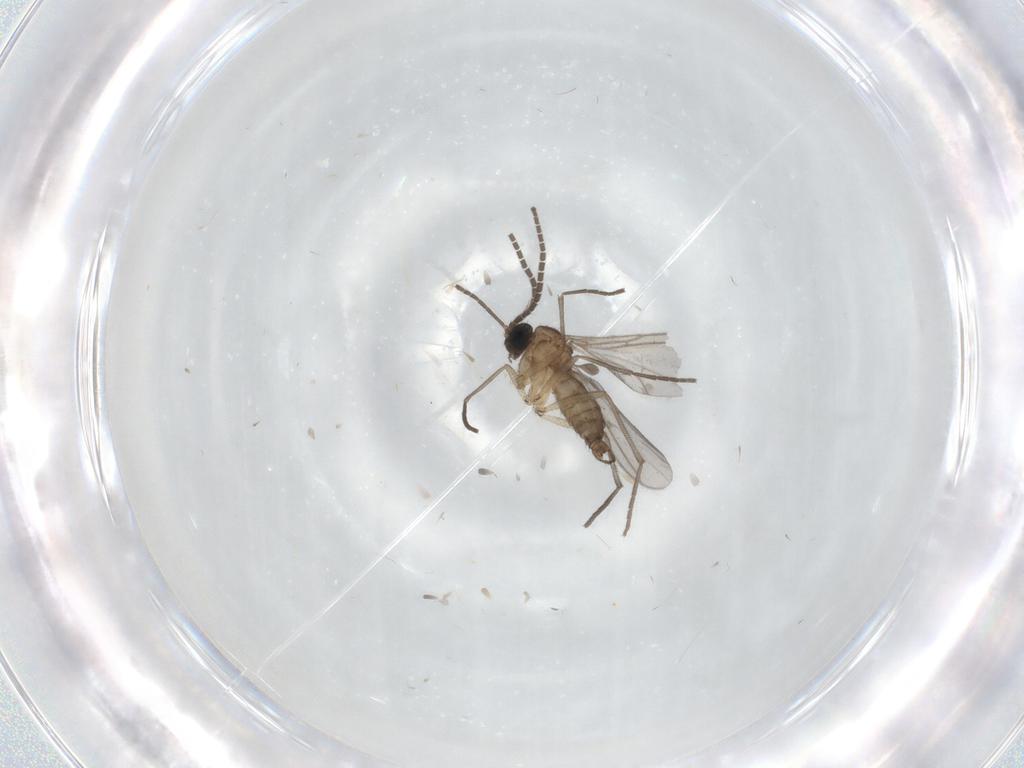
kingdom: Animalia
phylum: Arthropoda
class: Insecta
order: Diptera
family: Sciaridae
